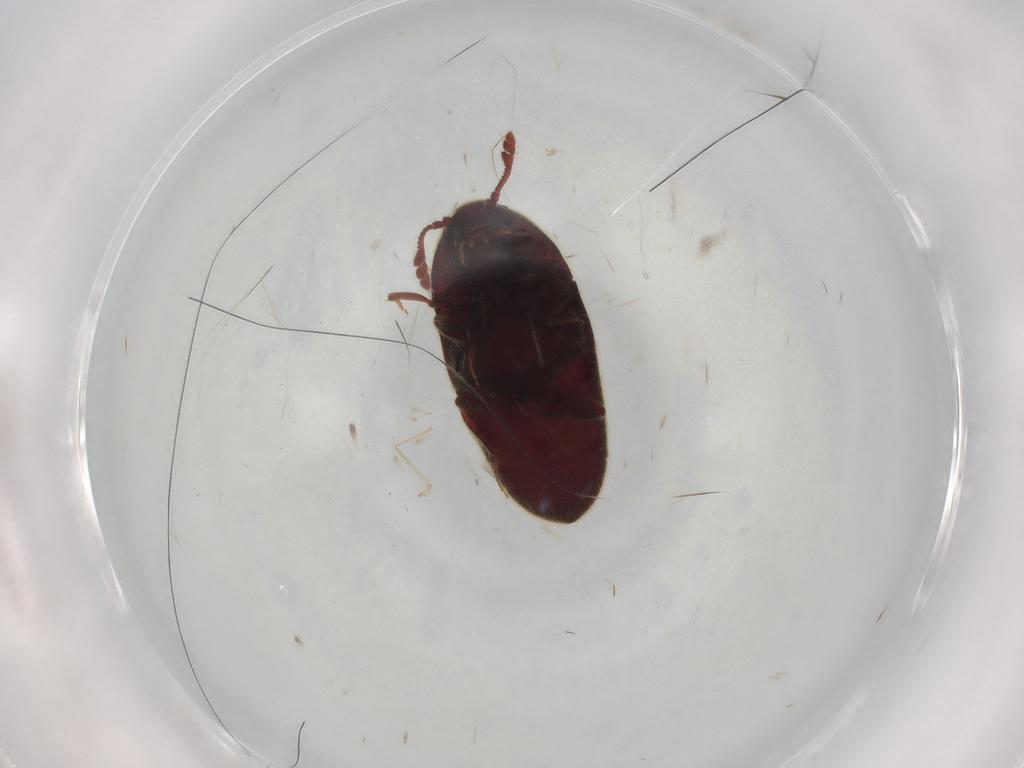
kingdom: Animalia
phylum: Arthropoda
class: Insecta
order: Coleoptera
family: Throscidae
